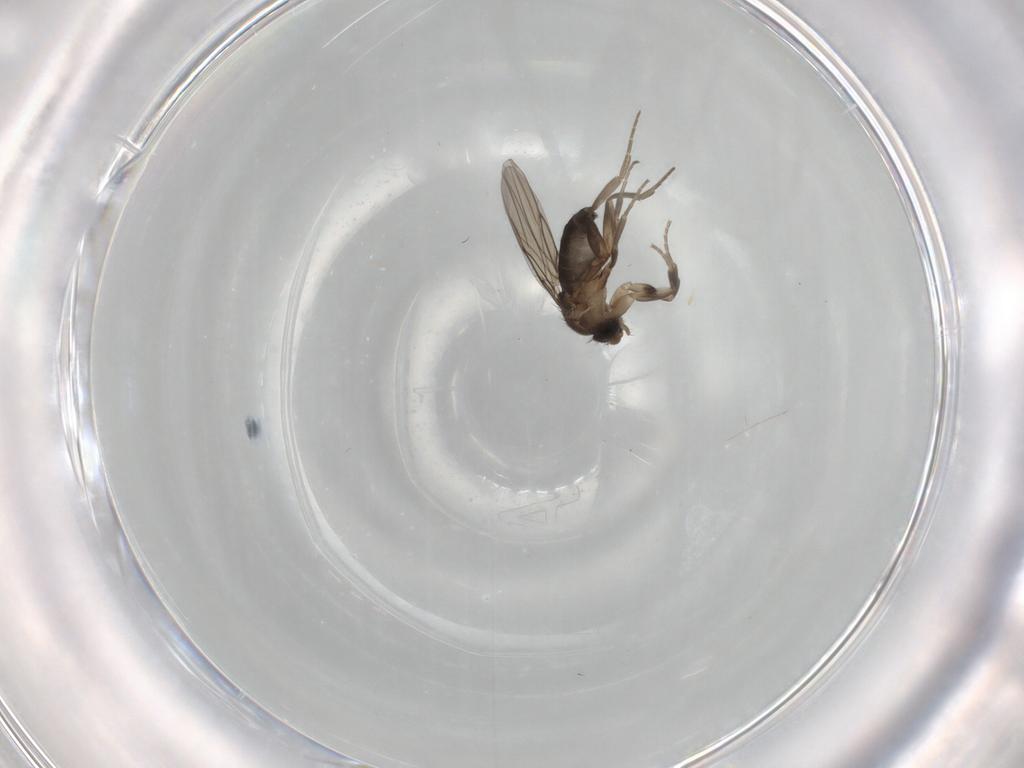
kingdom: Animalia
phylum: Arthropoda
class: Insecta
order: Diptera
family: Phoridae
